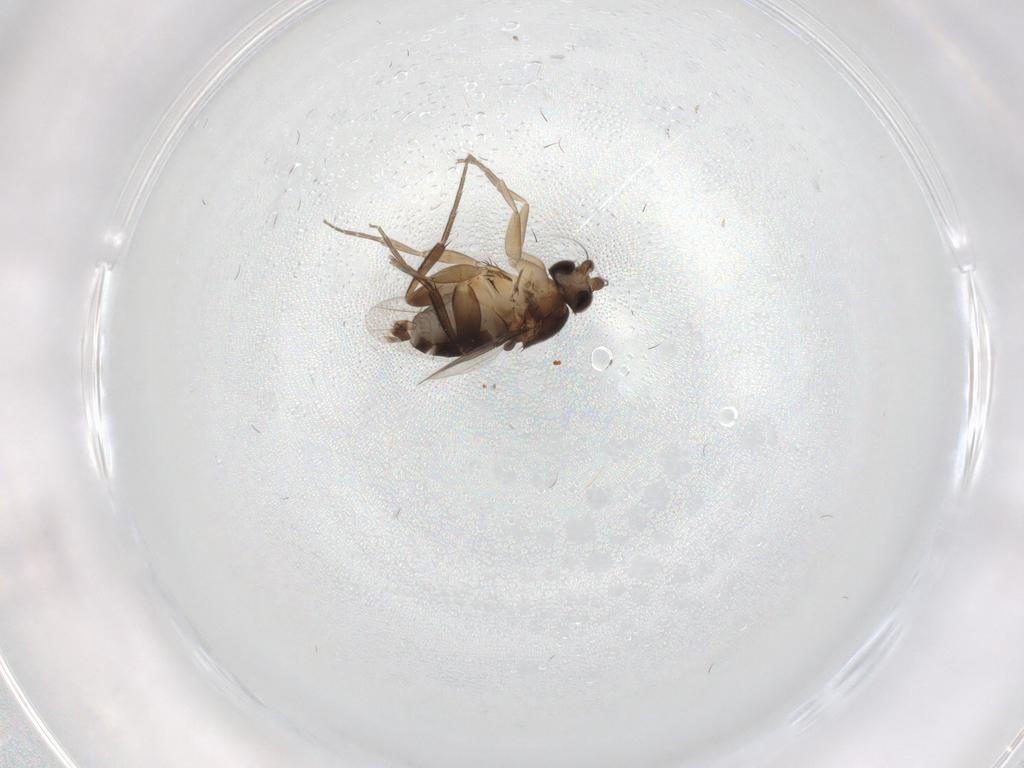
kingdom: Animalia
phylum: Arthropoda
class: Insecta
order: Diptera
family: Phoridae
